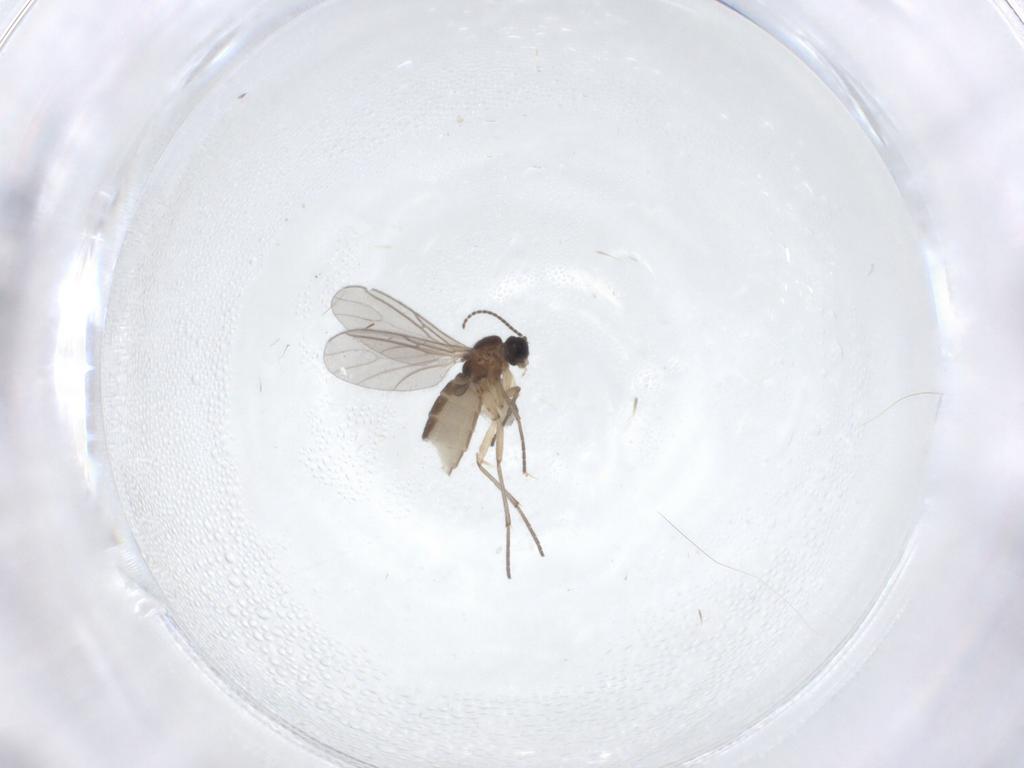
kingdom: Animalia
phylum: Arthropoda
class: Insecta
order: Diptera
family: Sciaridae
